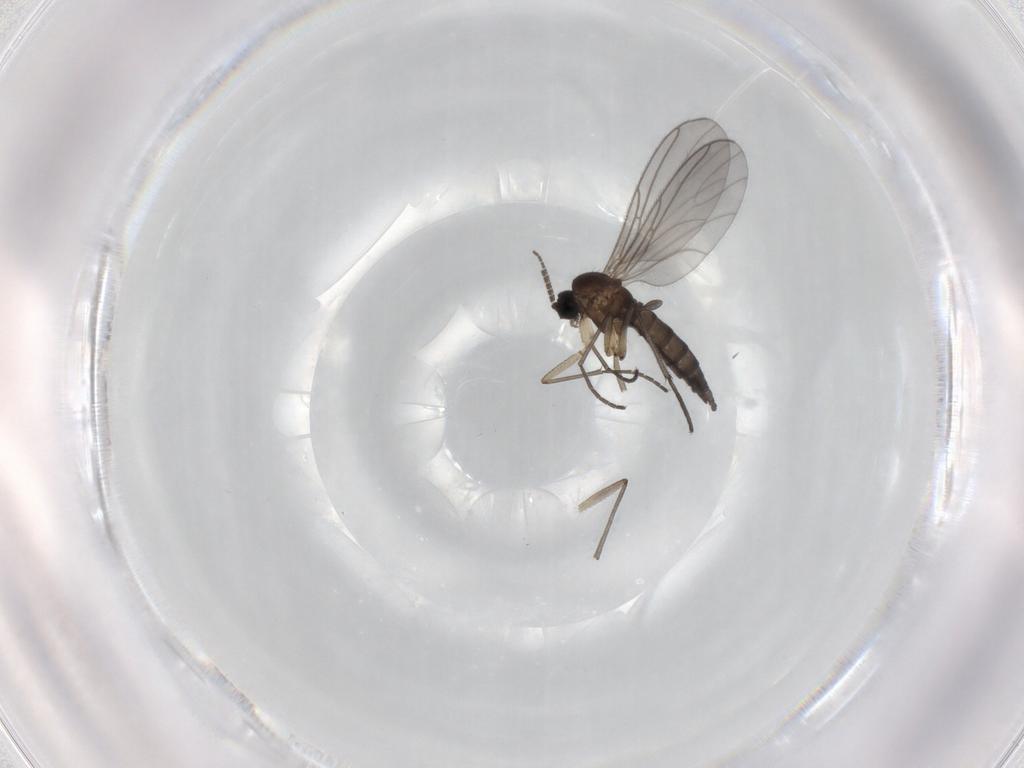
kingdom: Animalia
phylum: Arthropoda
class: Insecta
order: Diptera
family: Sciaridae
